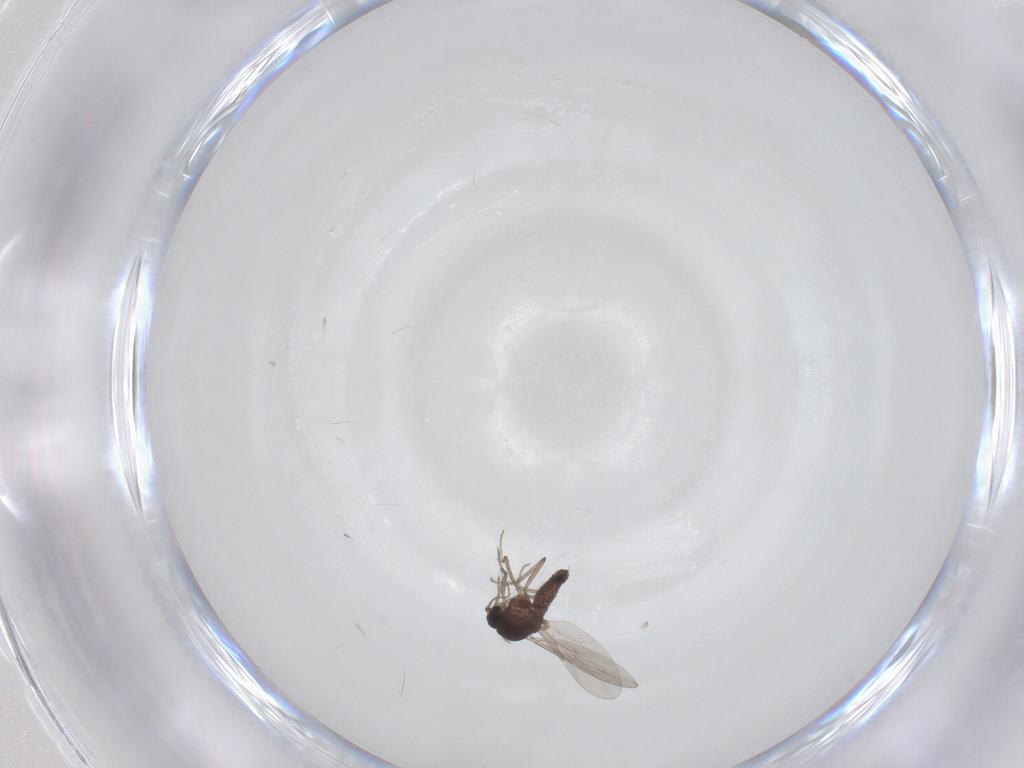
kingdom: Animalia
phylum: Arthropoda
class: Insecta
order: Diptera
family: Ceratopogonidae
